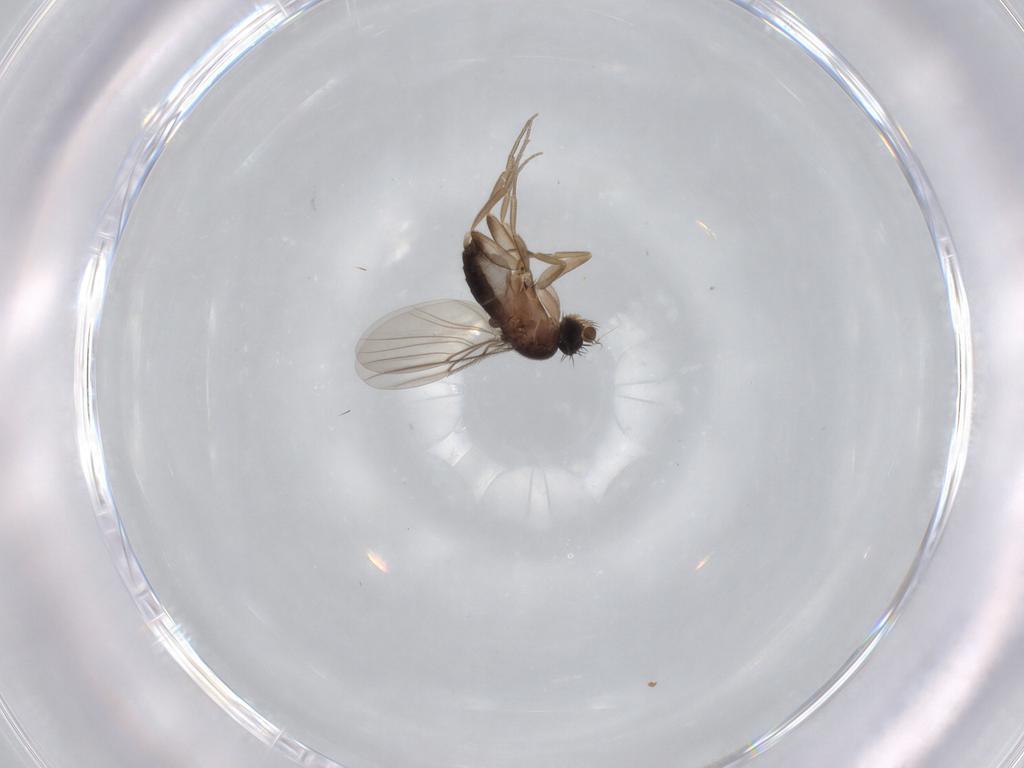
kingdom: Animalia
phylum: Arthropoda
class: Insecta
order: Diptera
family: Phoridae
